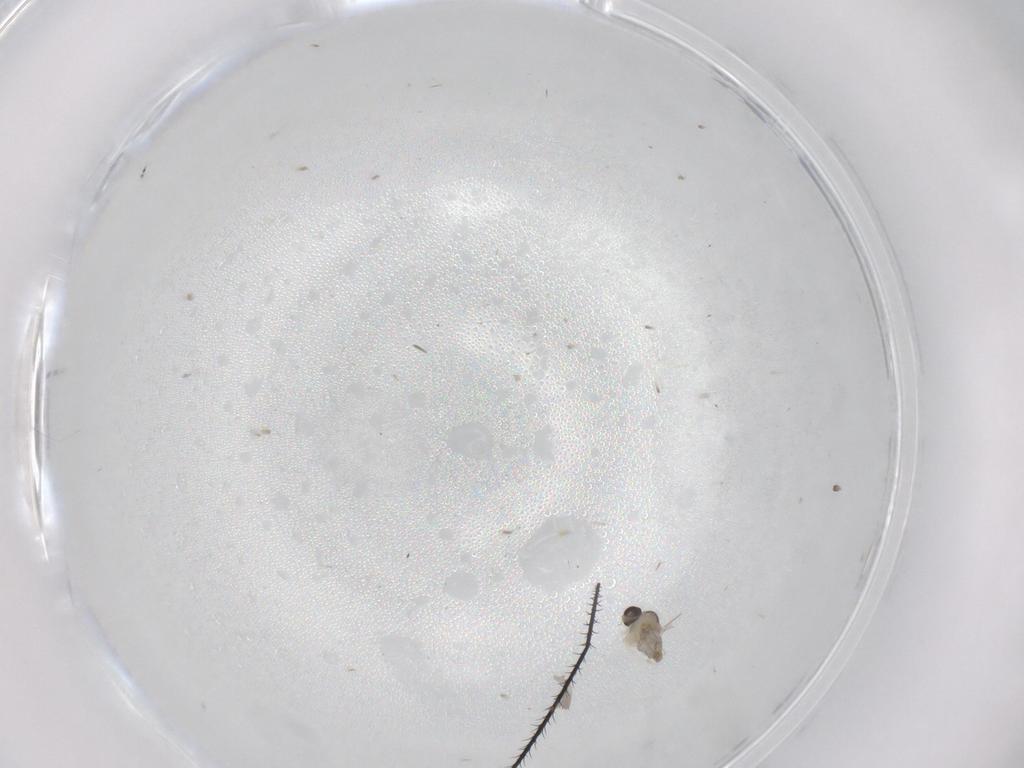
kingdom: Animalia
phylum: Arthropoda
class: Insecta
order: Diptera
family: Cecidomyiidae
